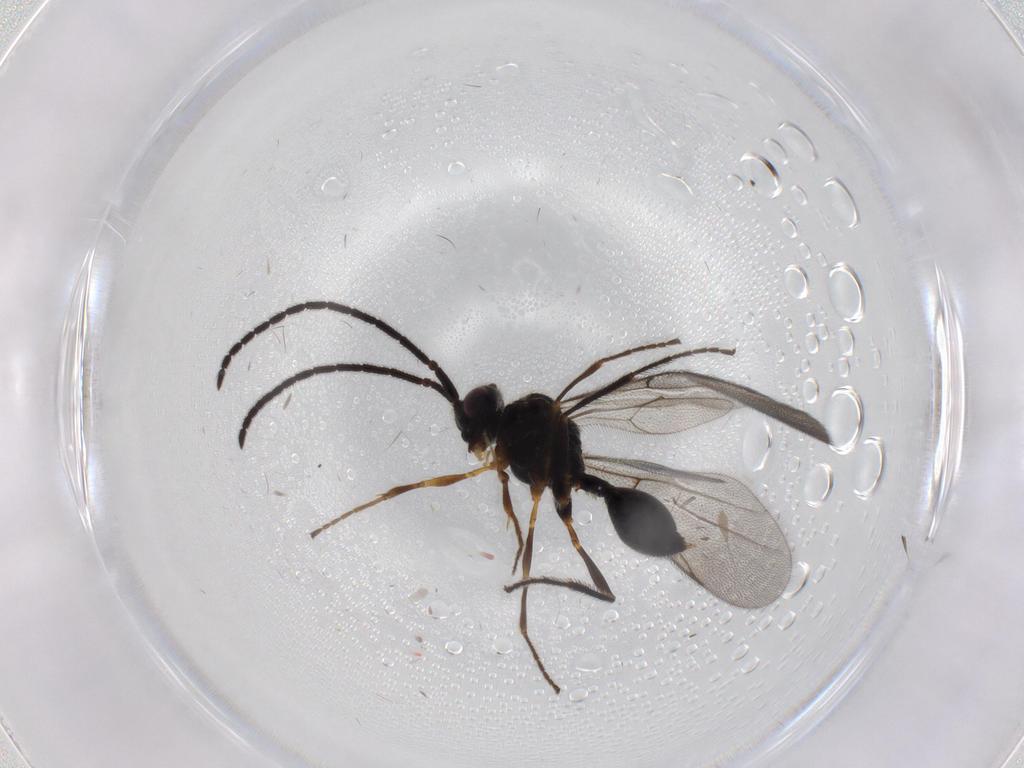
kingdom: Animalia
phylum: Arthropoda
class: Insecta
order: Hymenoptera
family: Diapriidae
